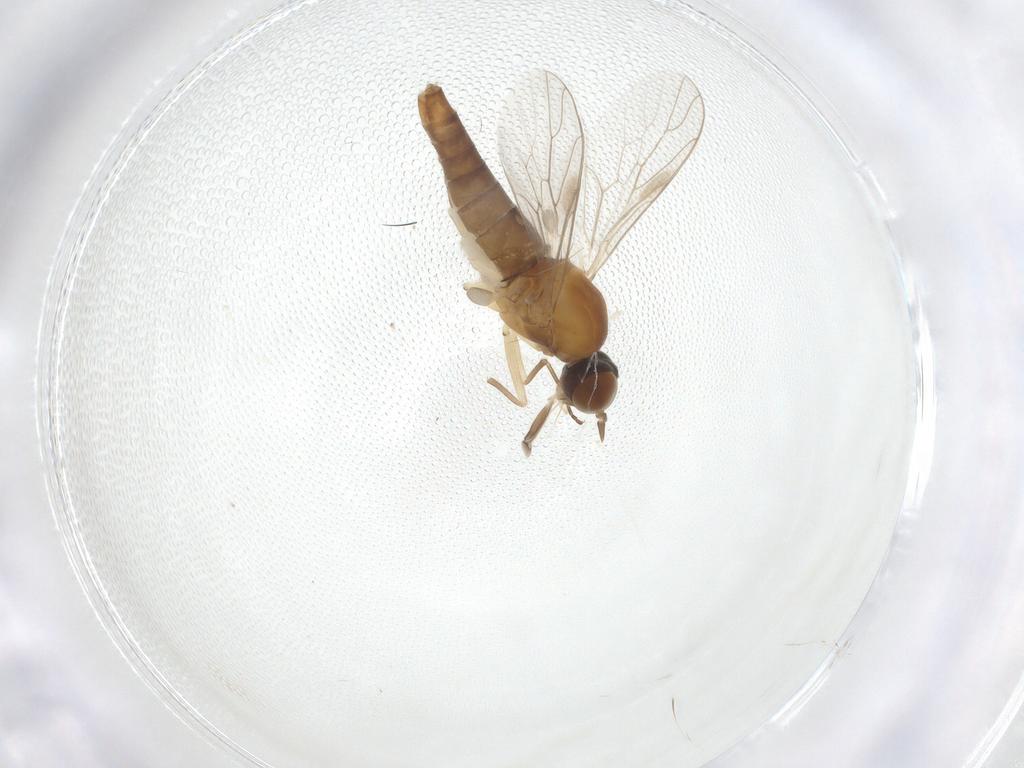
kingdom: Animalia
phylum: Arthropoda
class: Insecta
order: Diptera
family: Scenopinidae
